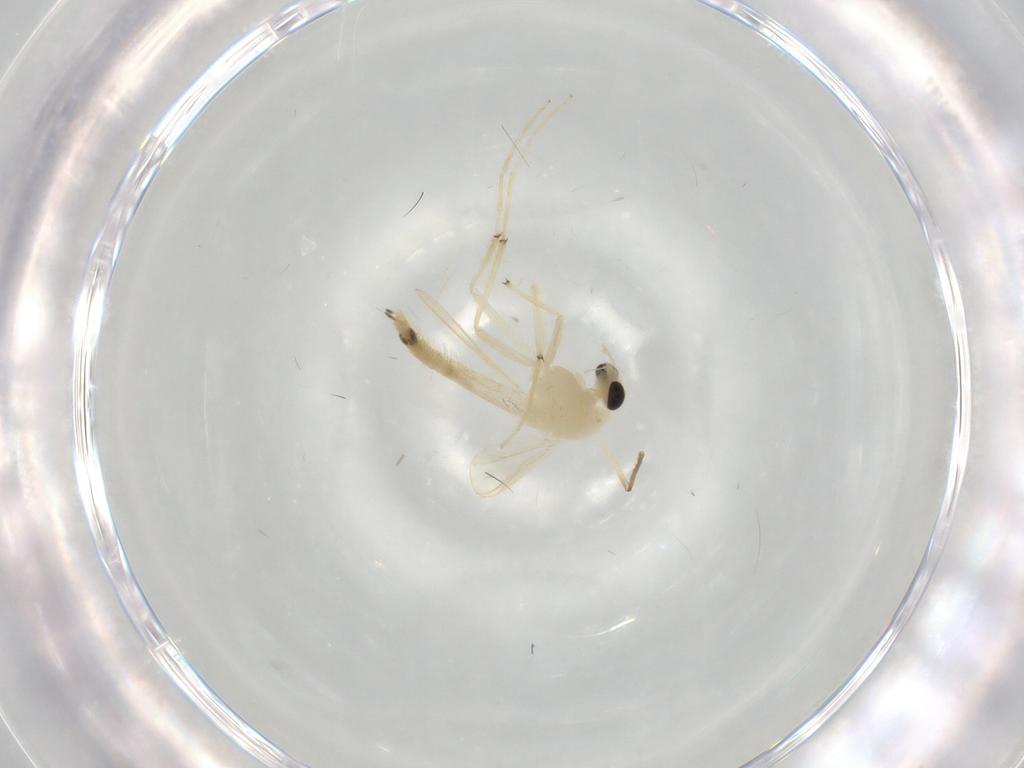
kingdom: Animalia
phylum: Arthropoda
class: Insecta
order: Diptera
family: Chironomidae
